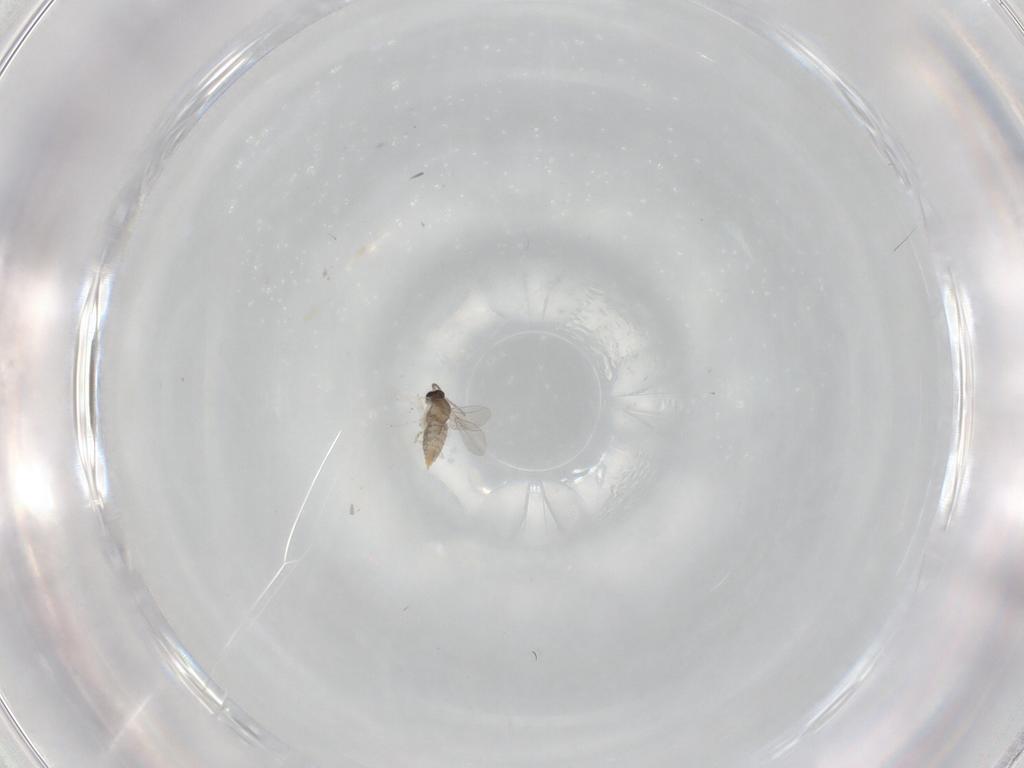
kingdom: Animalia
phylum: Arthropoda
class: Insecta
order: Diptera
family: Cecidomyiidae
